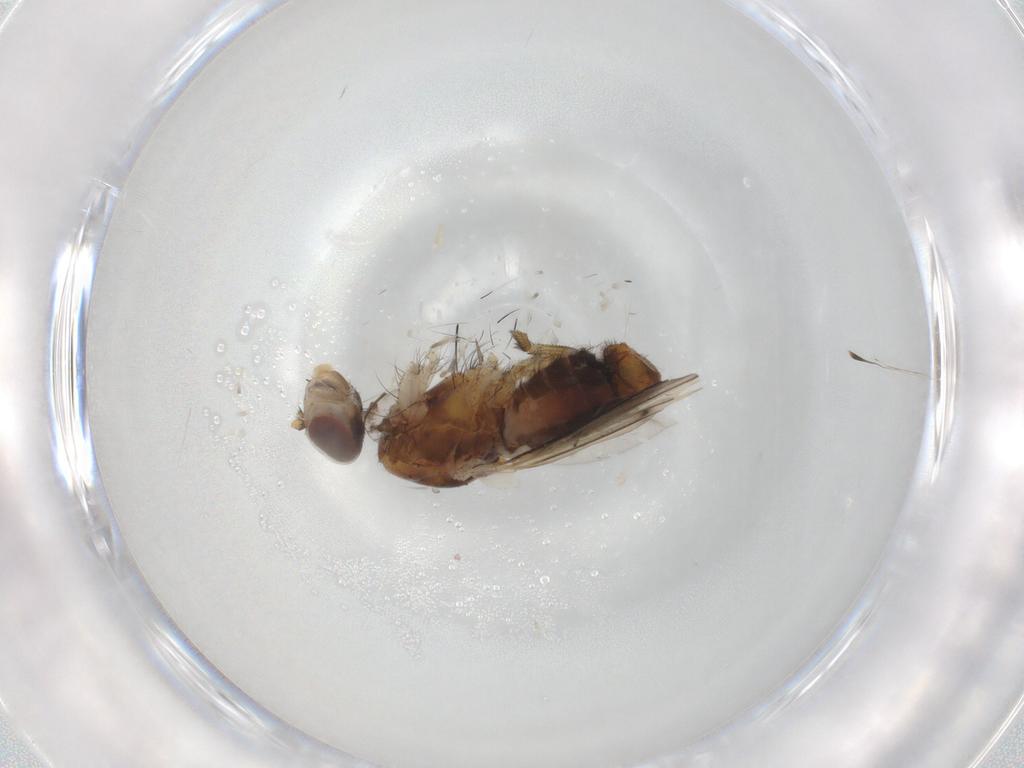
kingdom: Animalia
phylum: Arthropoda
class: Insecta
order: Diptera
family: Heleomyzidae
